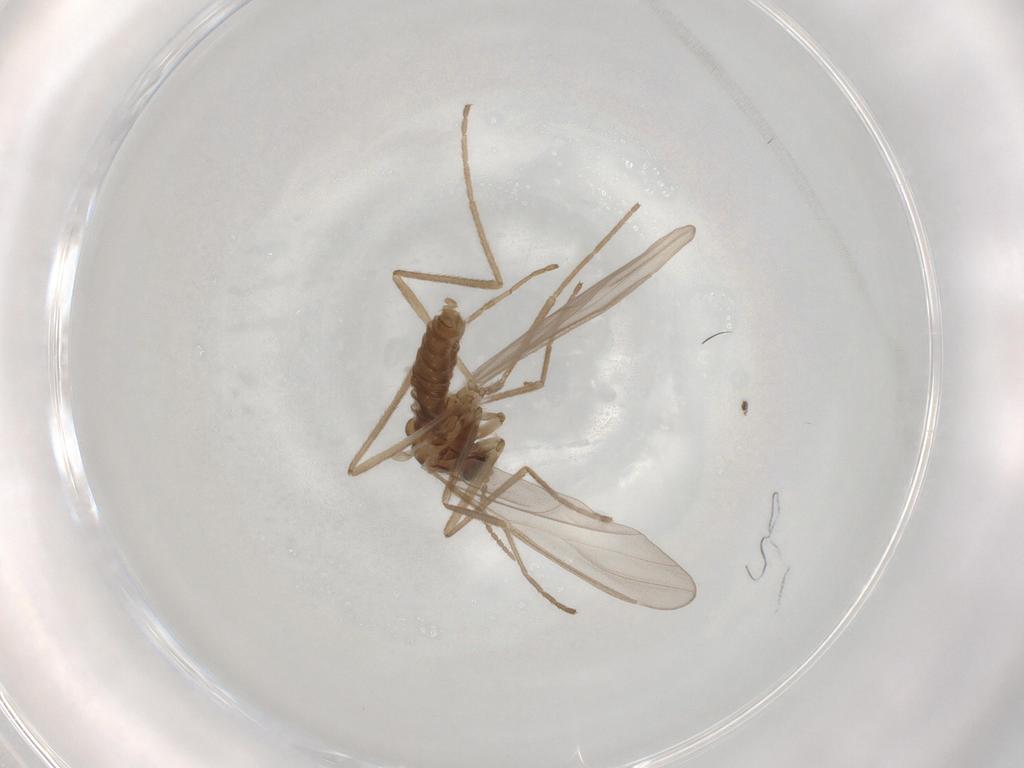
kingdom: Animalia
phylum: Arthropoda
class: Insecta
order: Diptera
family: Cecidomyiidae
